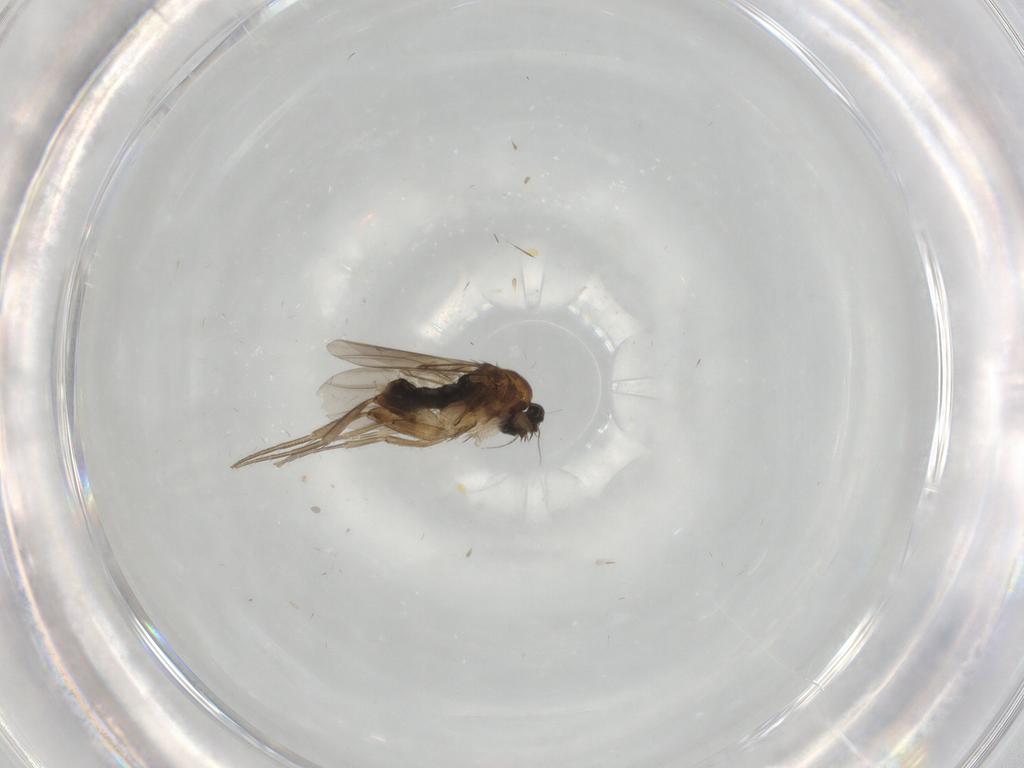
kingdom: Animalia
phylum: Arthropoda
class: Insecta
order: Diptera
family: Phoridae
